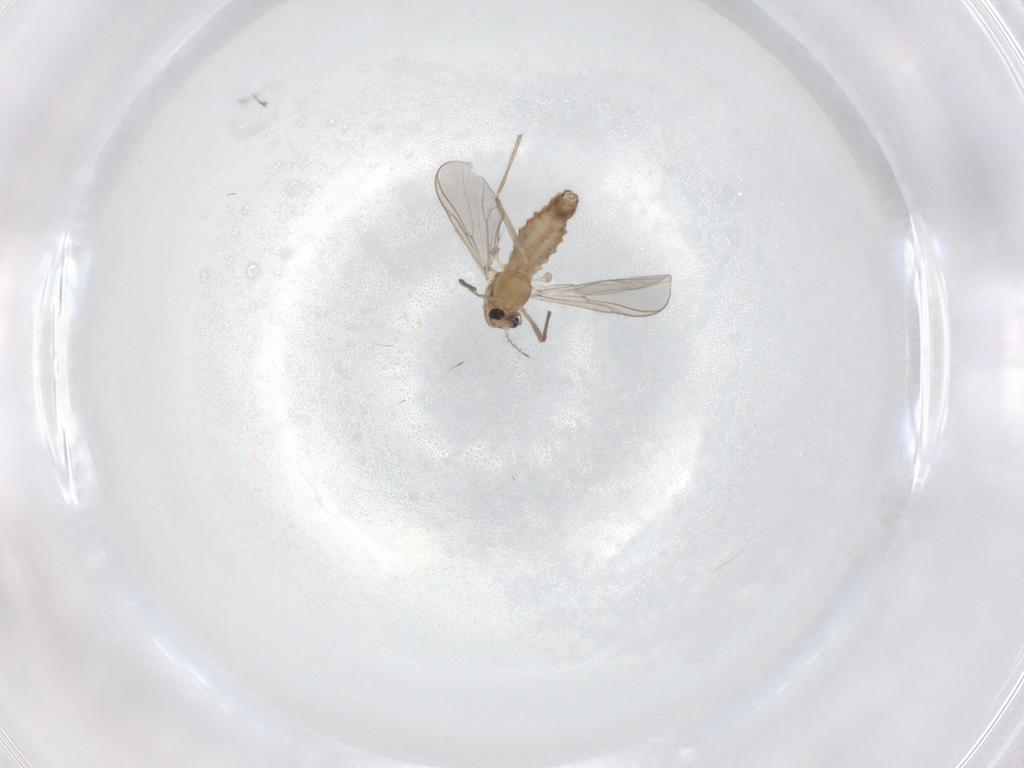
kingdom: Animalia
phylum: Arthropoda
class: Insecta
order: Diptera
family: Chironomidae
